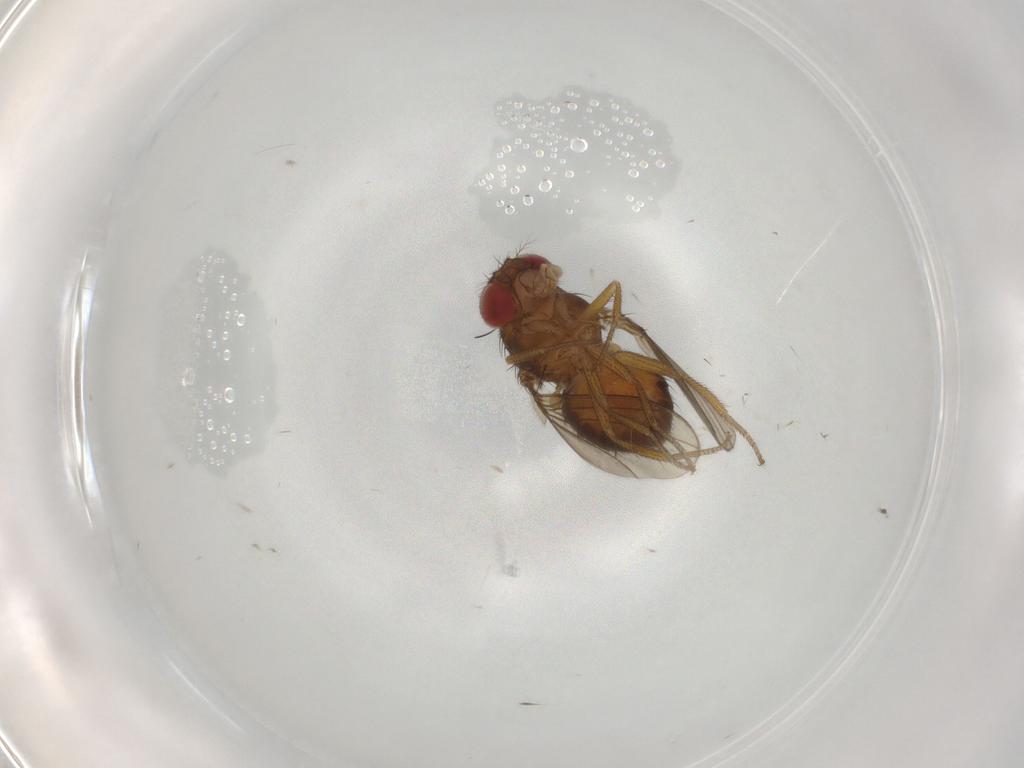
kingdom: Animalia
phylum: Arthropoda
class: Insecta
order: Diptera
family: Drosophilidae
